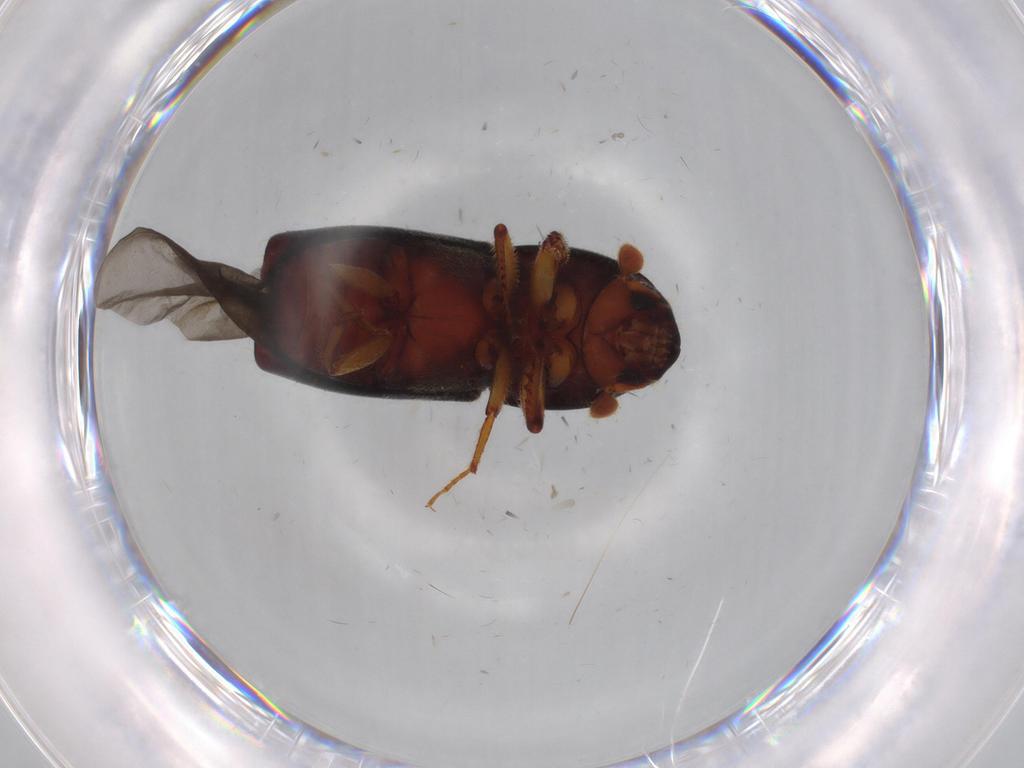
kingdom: Animalia
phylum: Arthropoda
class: Insecta
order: Coleoptera
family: Curculionidae
